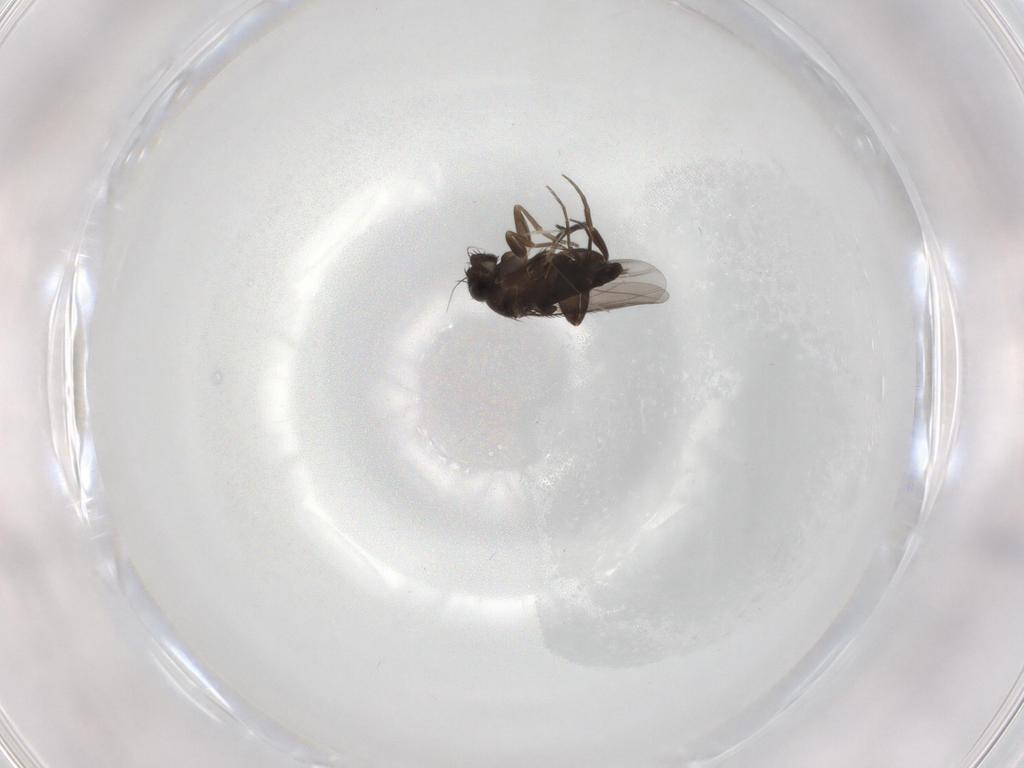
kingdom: Animalia
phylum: Arthropoda
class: Insecta
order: Diptera
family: Phoridae
